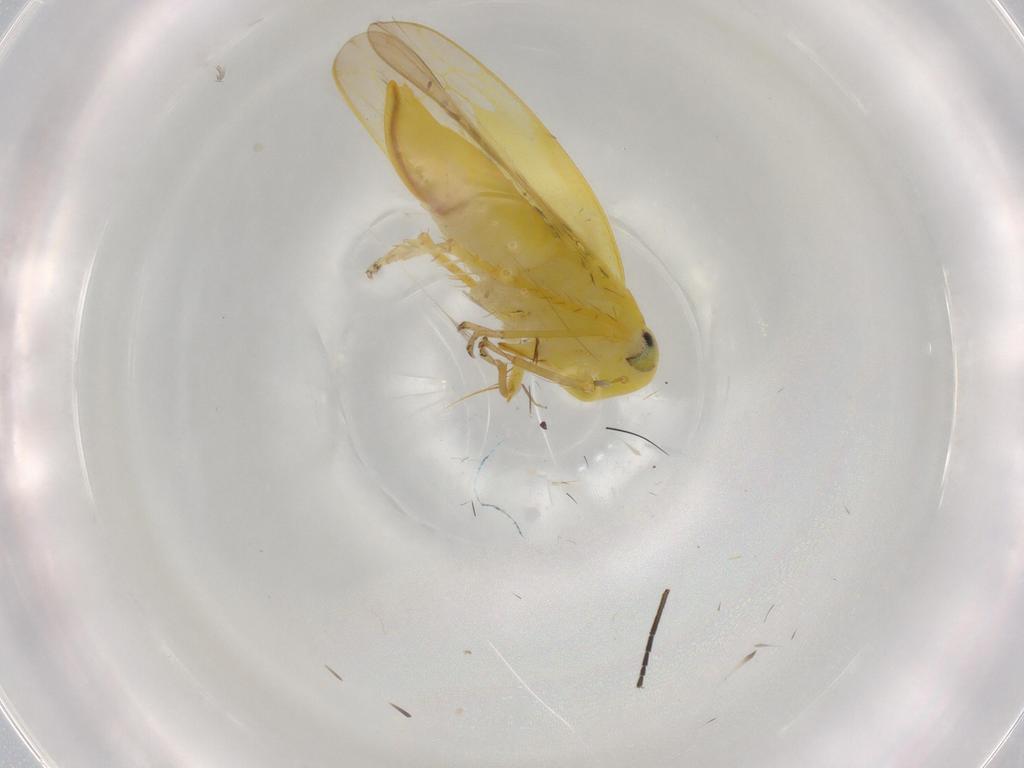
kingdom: Animalia
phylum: Arthropoda
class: Insecta
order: Hemiptera
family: Cicadellidae
